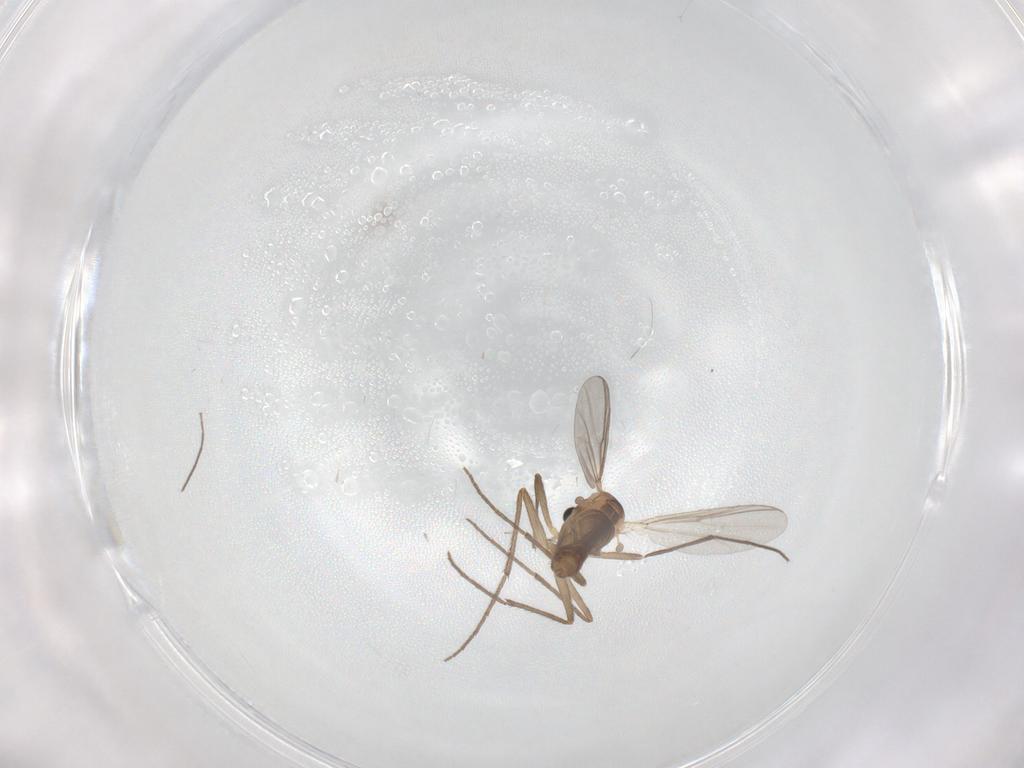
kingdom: Animalia
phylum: Arthropoda
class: Insecta
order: Diptera
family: Chironomidae
